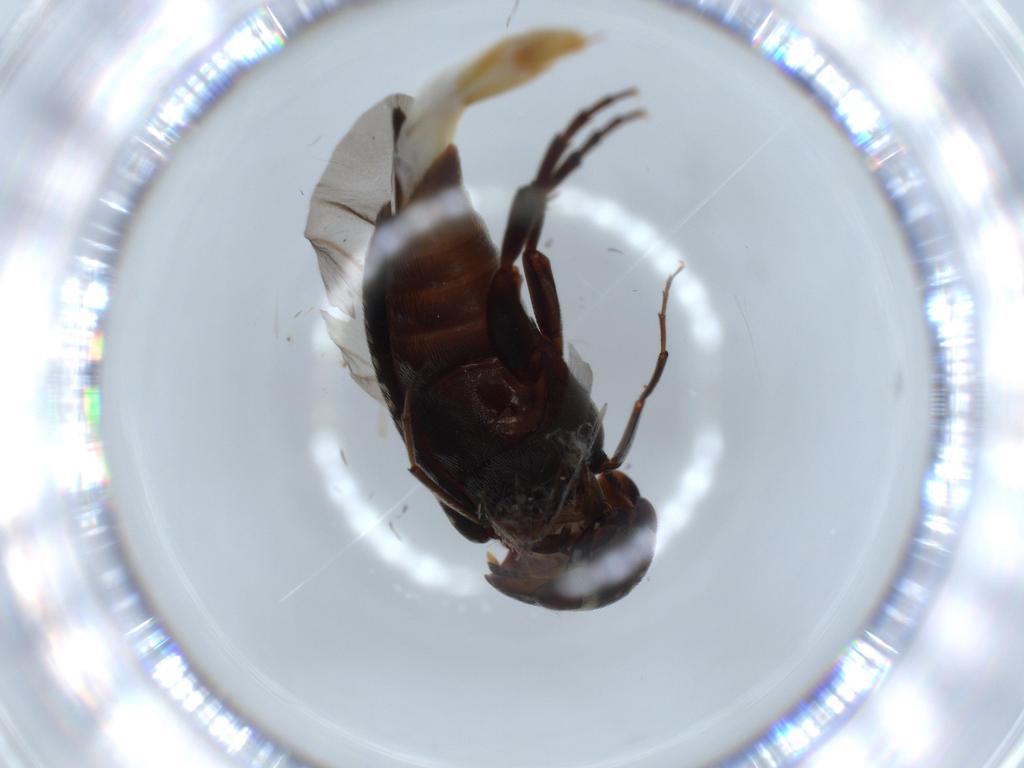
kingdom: Animalia
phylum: Arthropoda
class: Insecta
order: Coleoptera
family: Mordellidae
